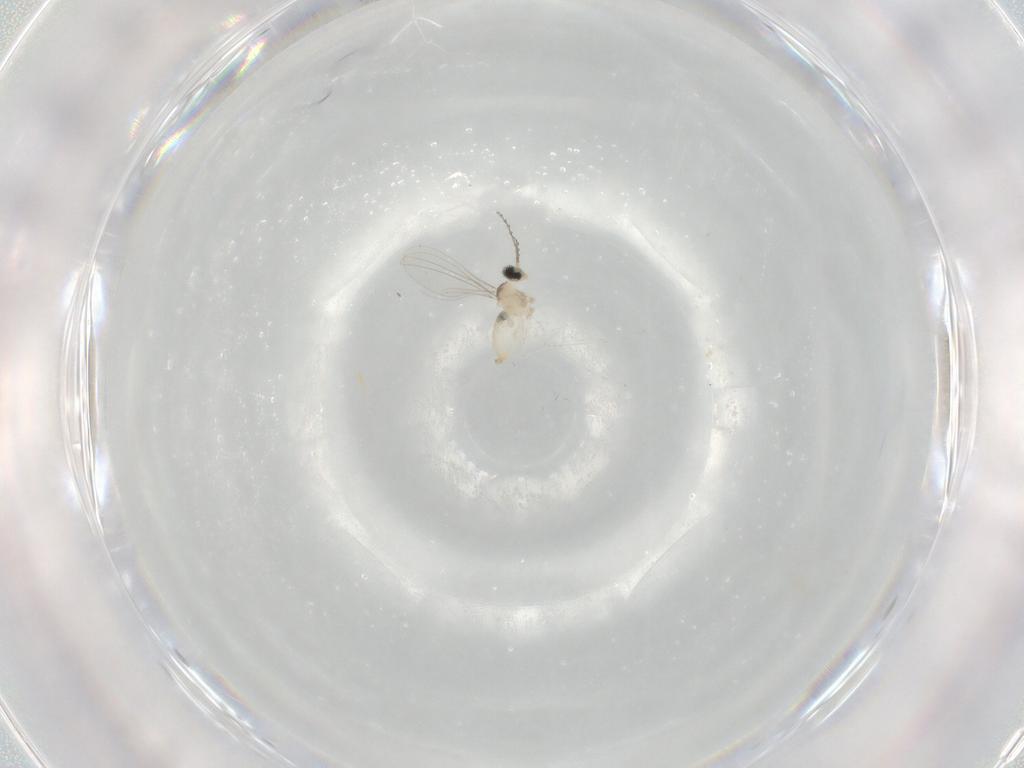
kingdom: Animalia
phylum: Arthropoda
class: Insecta
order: Diptera
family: Cecidomyiidae
